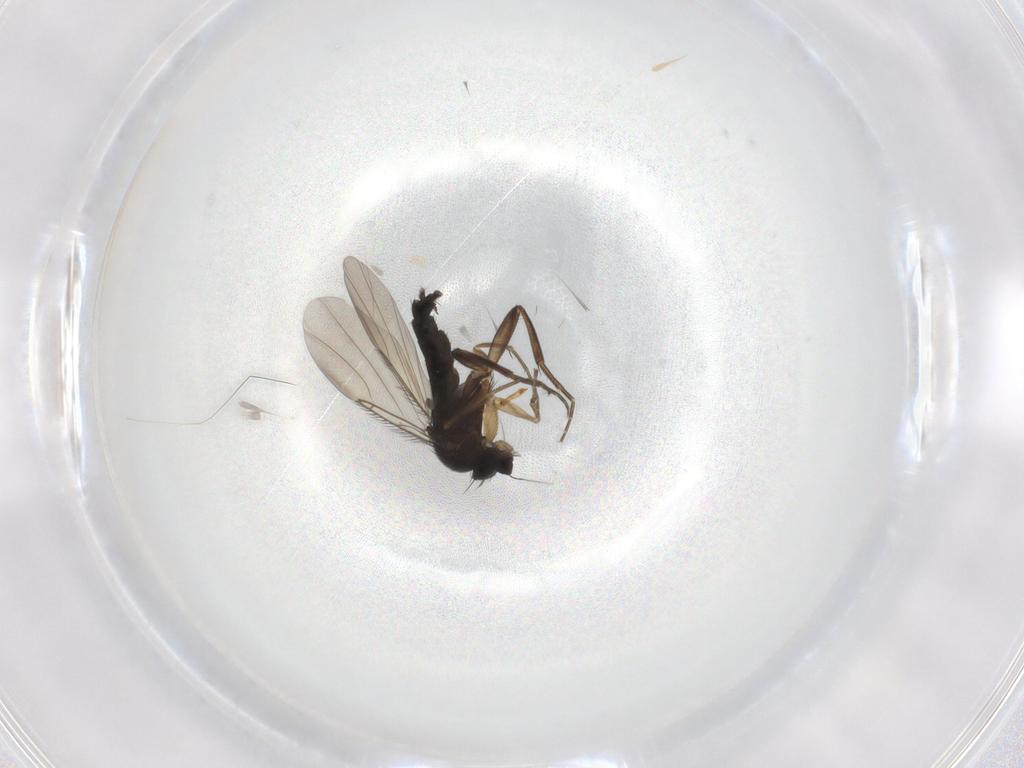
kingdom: Animalia
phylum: Arthropoda
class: Insecta
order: Diptera
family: Phoridae
